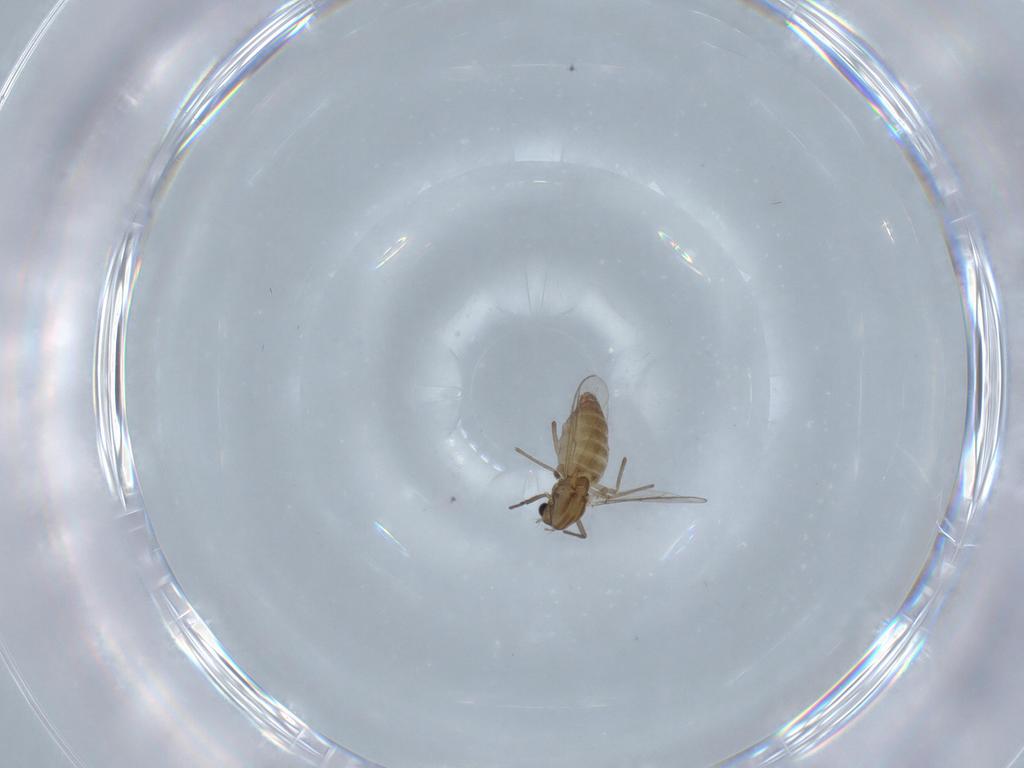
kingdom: Animalia
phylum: Arthropoda
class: Insecta
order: Diptera
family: Chironomidae
